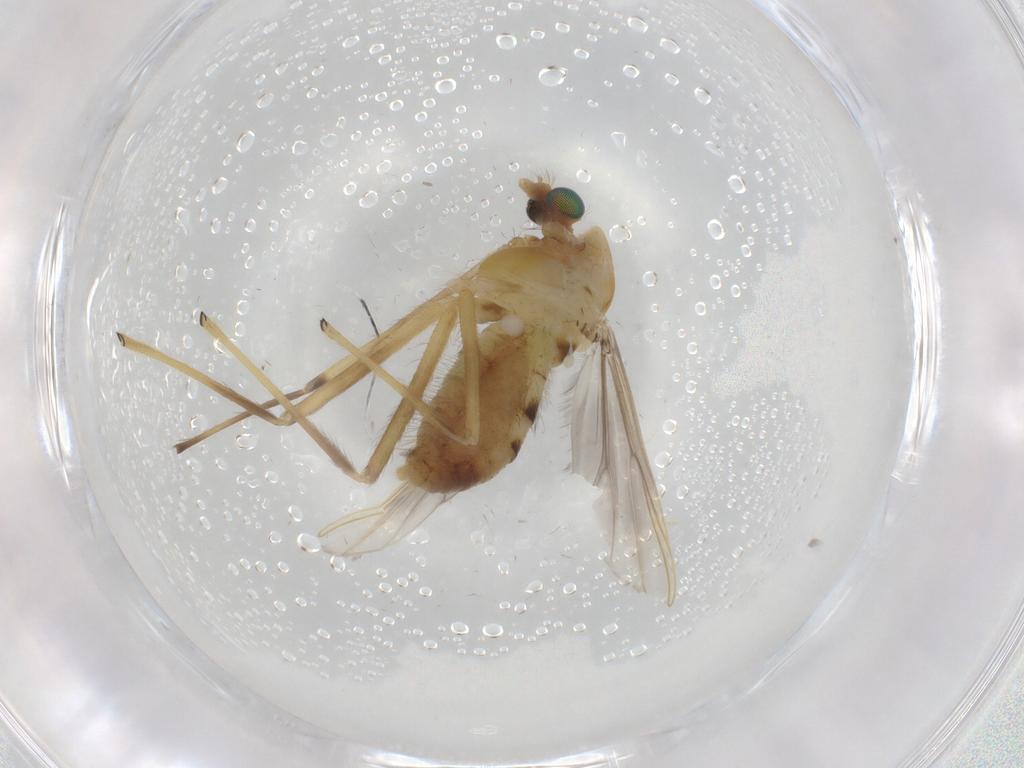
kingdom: Animalia
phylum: Arthropoda
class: Insecta
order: Diptera
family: Chironomidae
